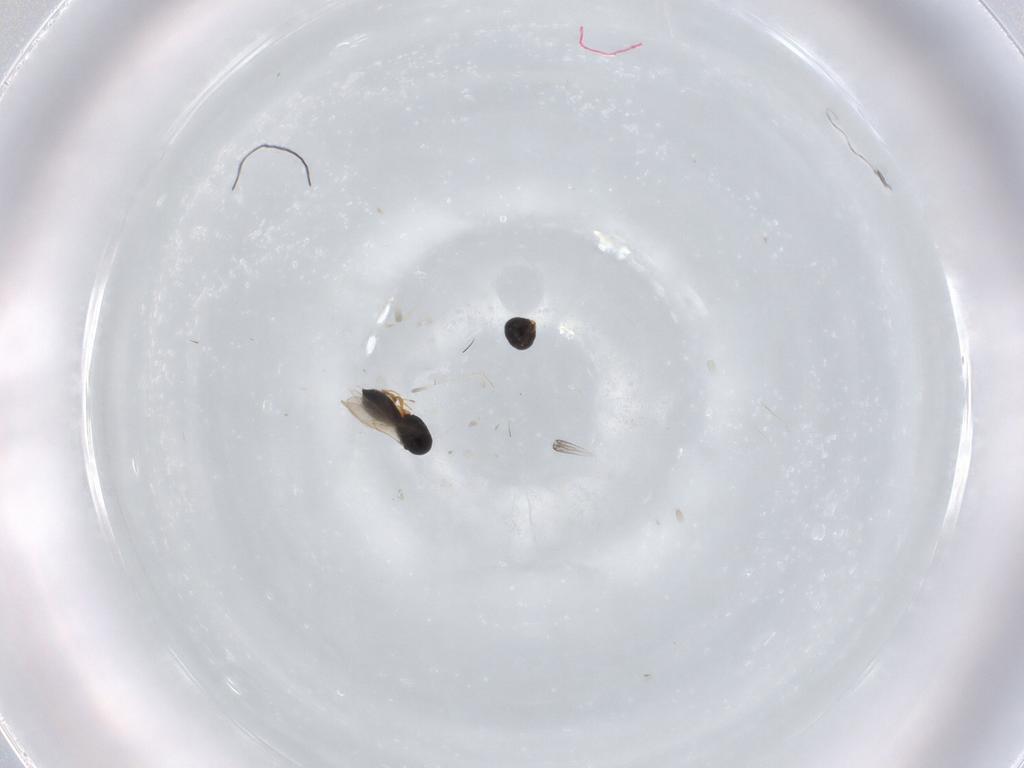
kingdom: Animalia
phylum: Arthropoda
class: Insecta
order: Hymenoptera
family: Scelionidae
